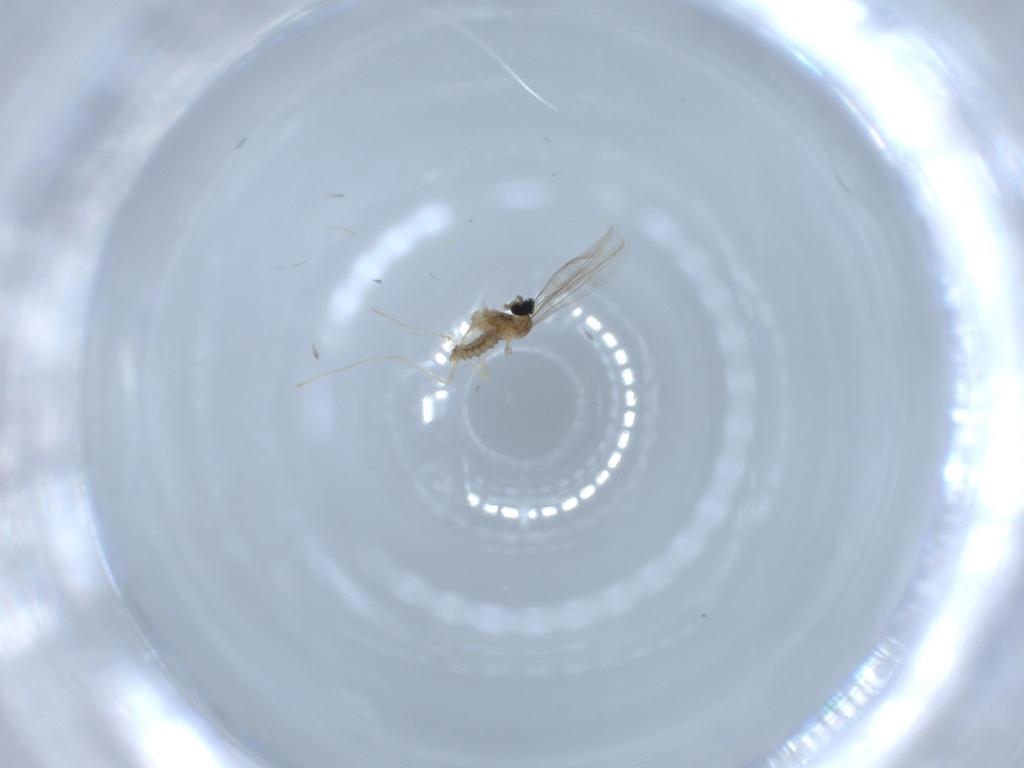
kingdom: Animalia
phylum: Arthropoda
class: Insecta
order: Diptera
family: Cecidomyiidae
